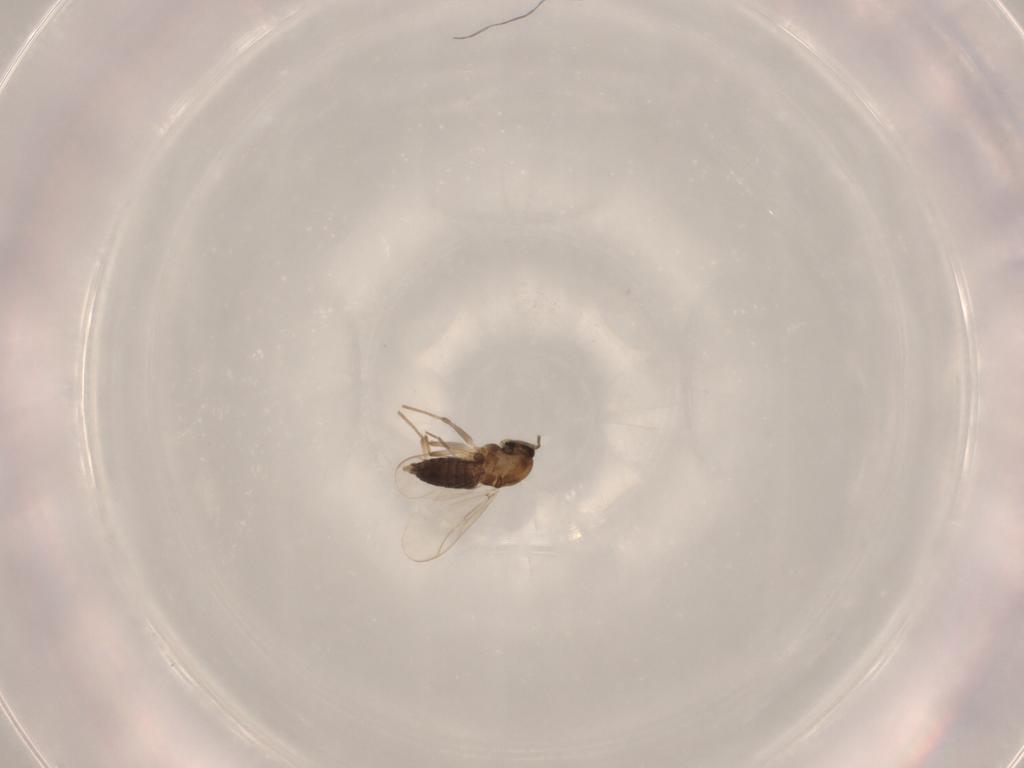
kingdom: Animalia
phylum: Arthropoda
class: Insecta
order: Diptera
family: Chironomidae
